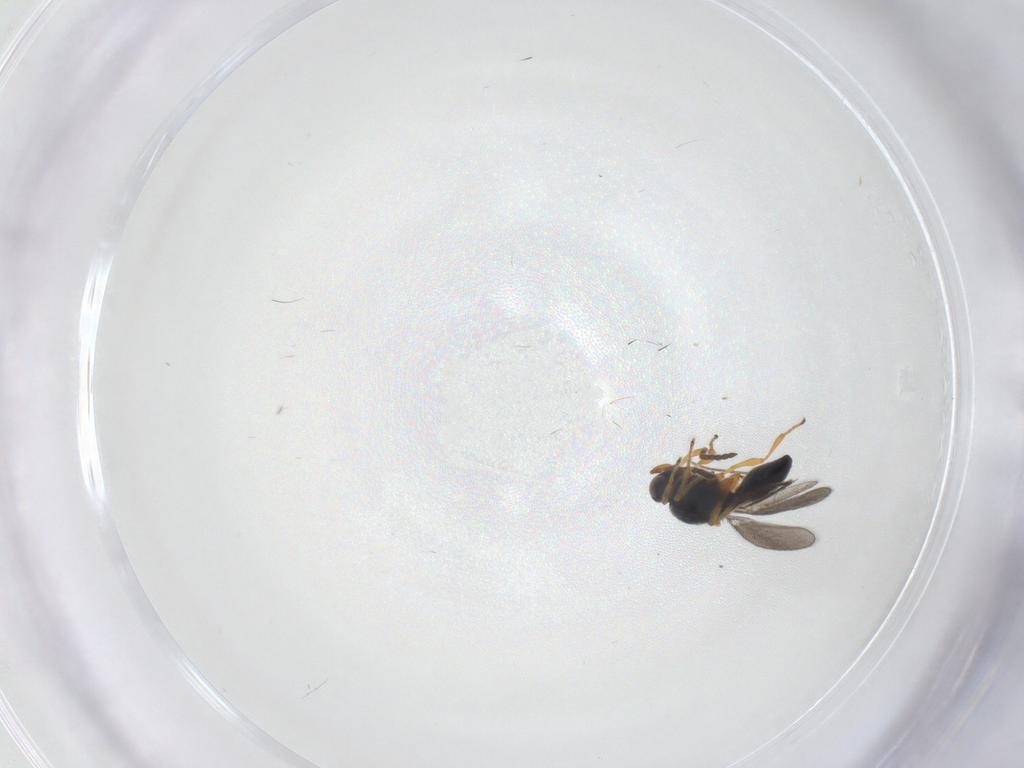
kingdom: Animalia
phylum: Arthropoda
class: Insecta
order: Hymenoptera
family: Platygastridae
